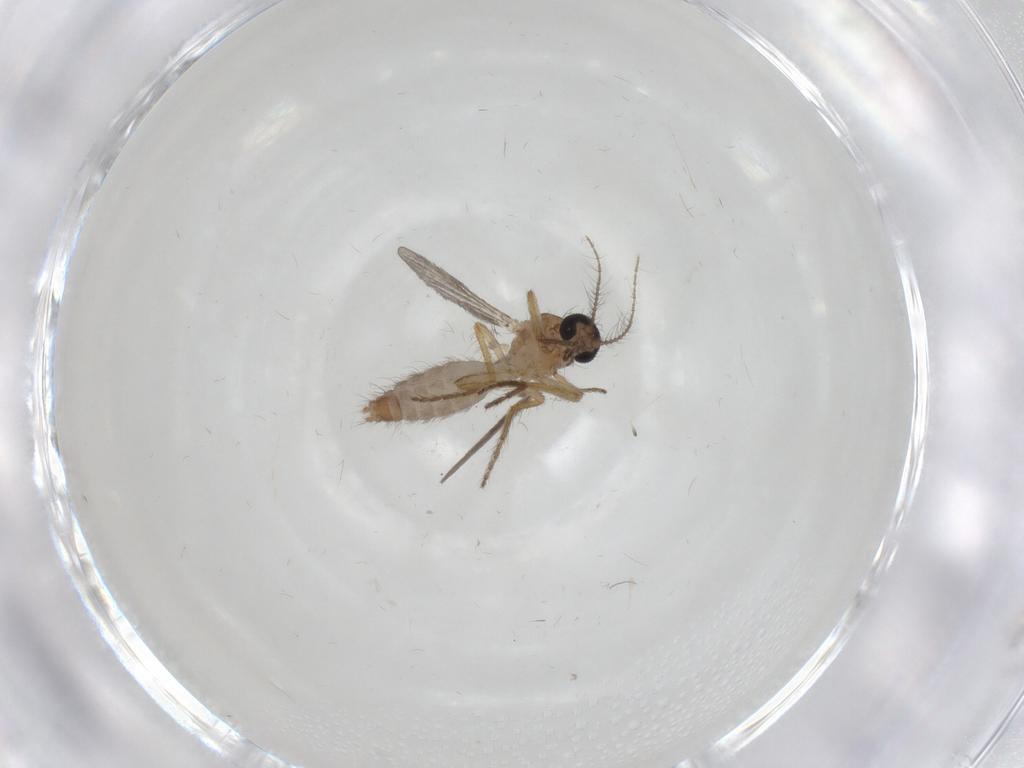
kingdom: Animalia
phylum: Arthropoda
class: Insecta
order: Diptera
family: Ceratopogonidae
